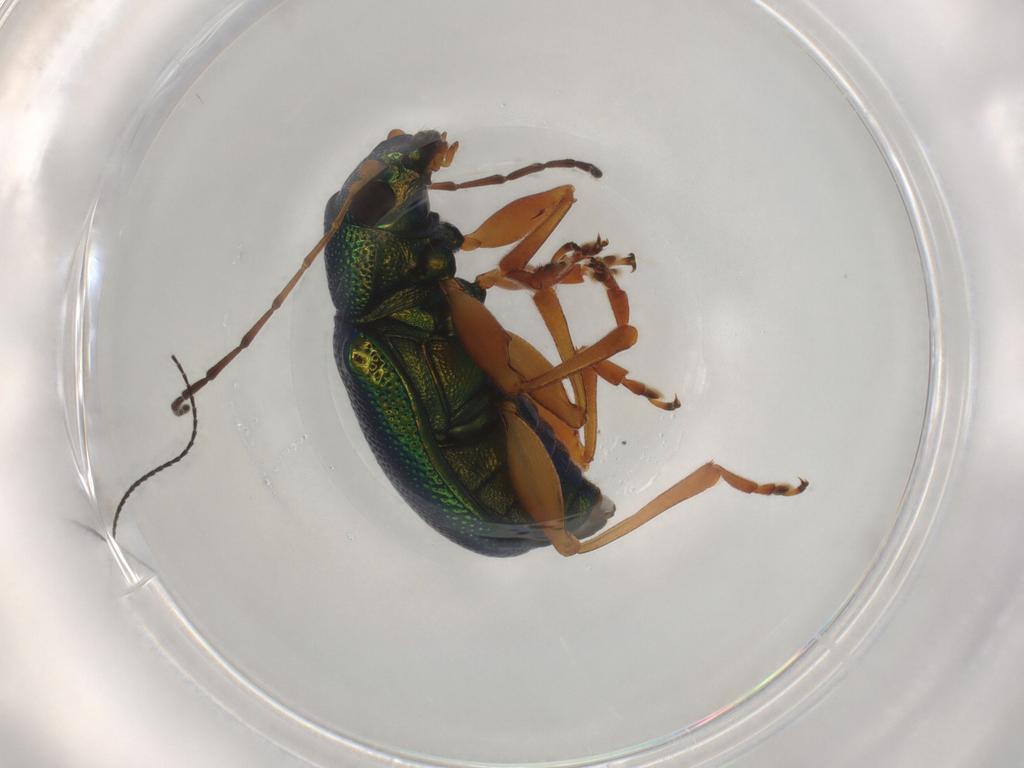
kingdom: Animalia
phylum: Arthropoda
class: Insecta
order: Coleoptera
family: Chrysomelidae
